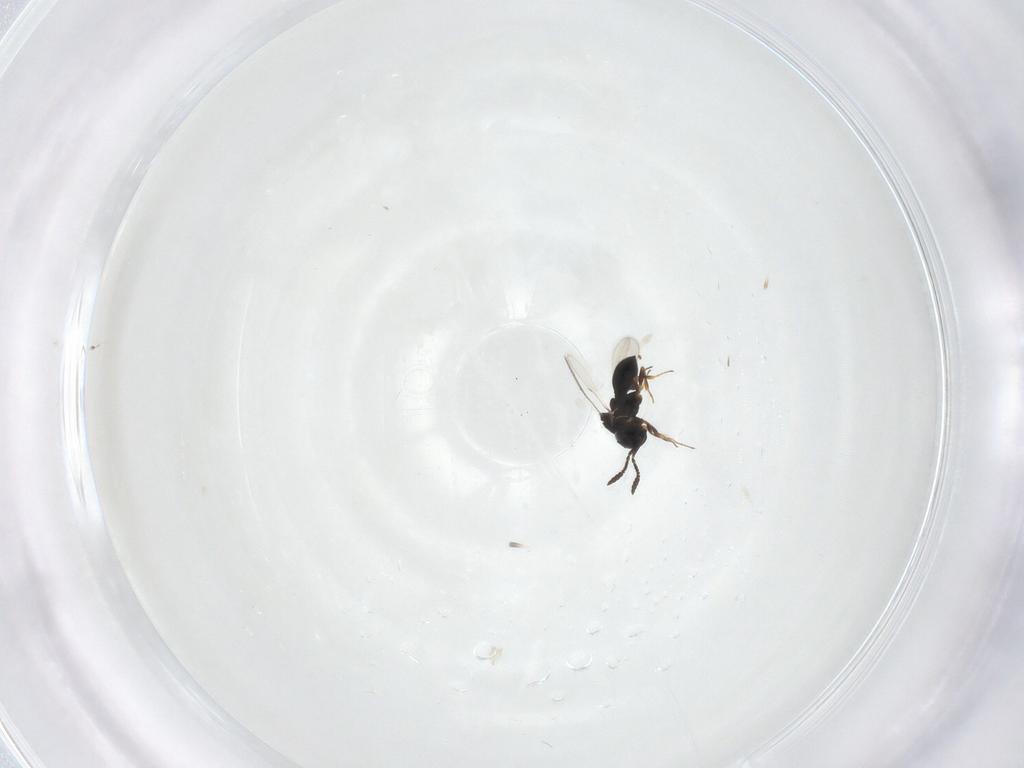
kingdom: Animalia
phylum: Arthropoda
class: Insecta
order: Hymenoptera
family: Scelionidae
